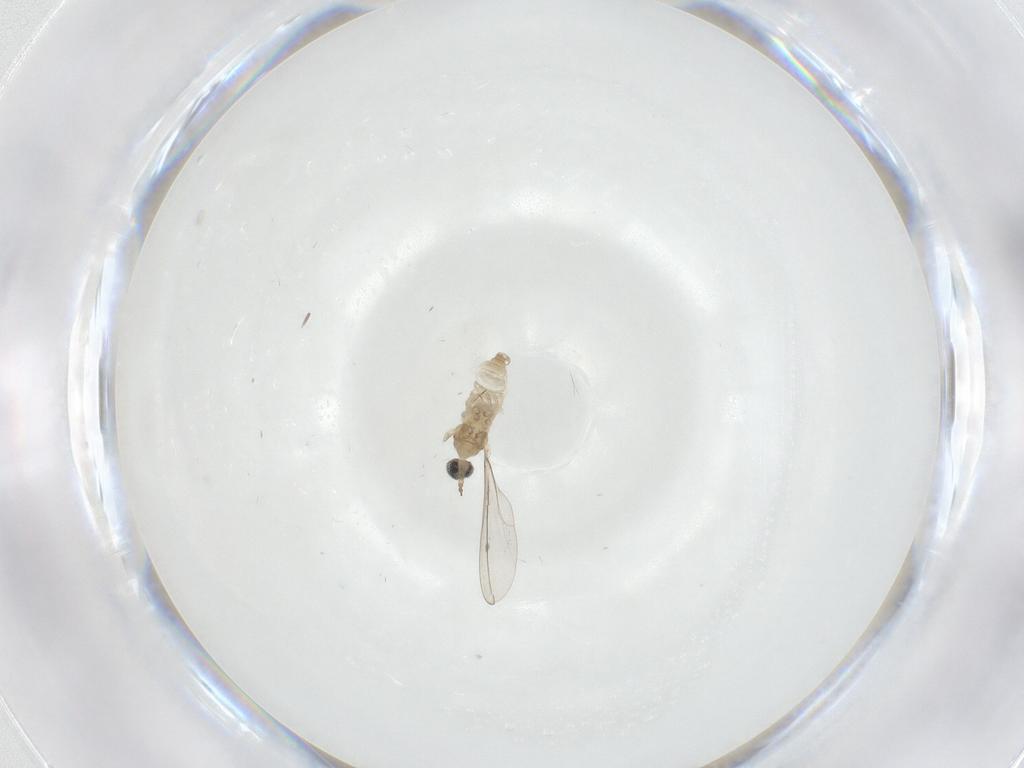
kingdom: Animalia
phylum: Arthropoda
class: Insecta
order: Diptera
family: Cecidomyiidae
